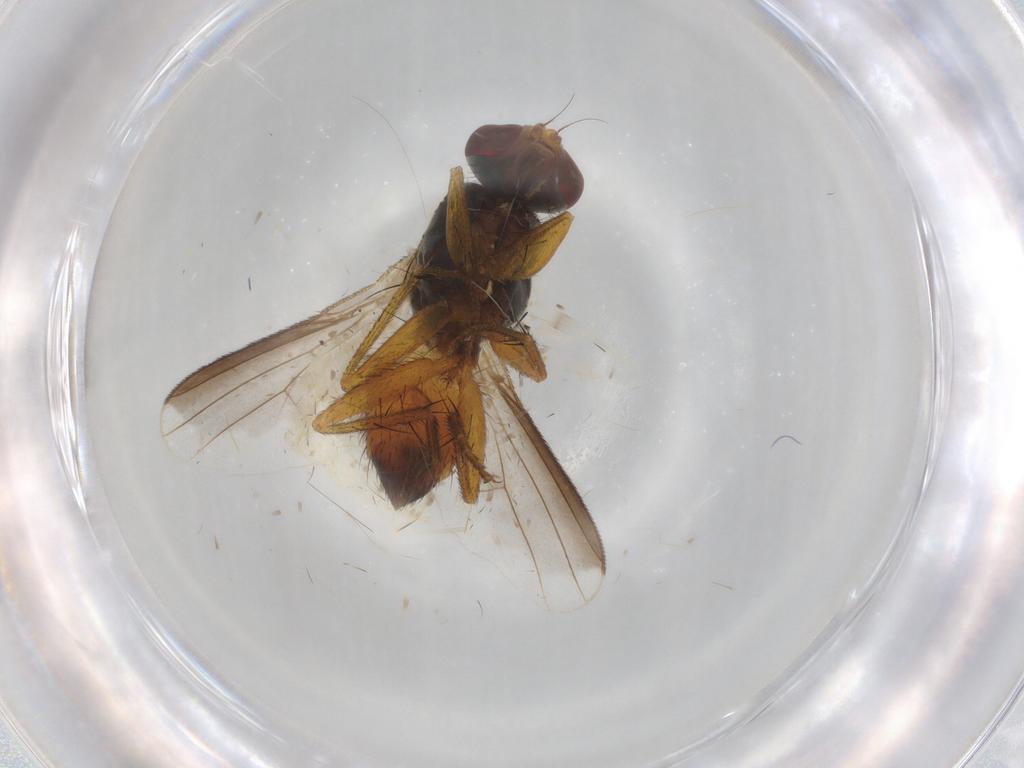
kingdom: Animalia
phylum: Arthropoda
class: Insecta
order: Diptera
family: Muscidae
